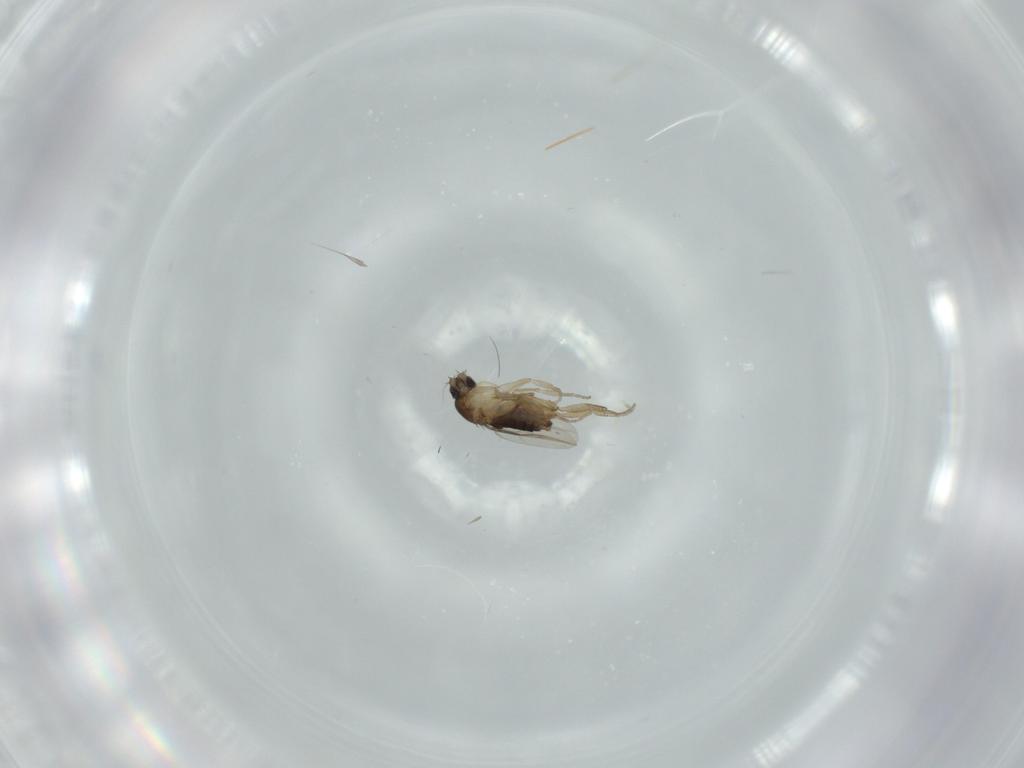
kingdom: Animalia
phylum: Arthropoda
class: Insecta
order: Diptera
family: Phoridae
